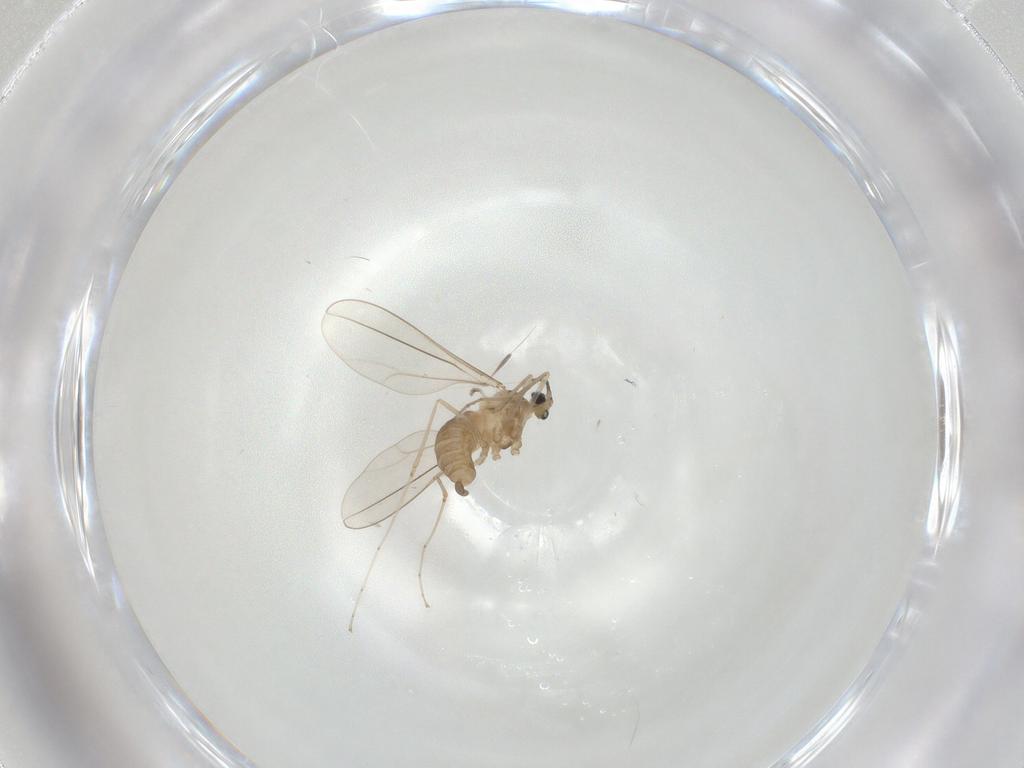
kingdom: Animalia
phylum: Arthropoda
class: Insecta
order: Diptera
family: Cecidomyiidae
